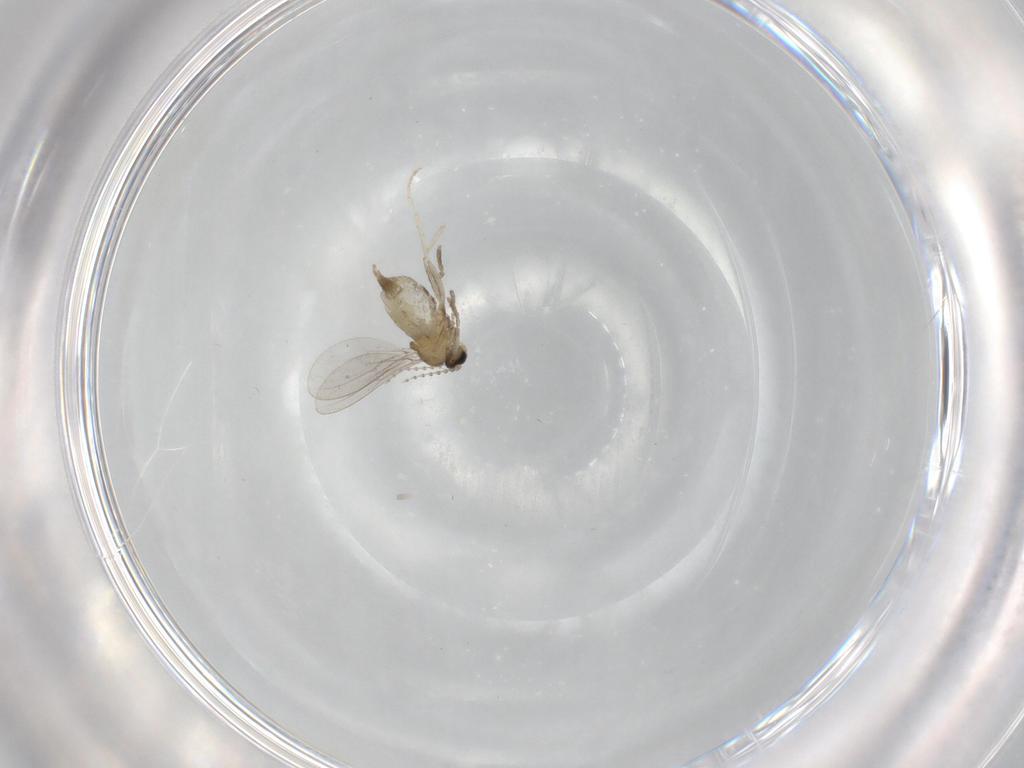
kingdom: Animalia
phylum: Arthropoda
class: Insecta
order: Diptera
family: Cecidomyiidae
